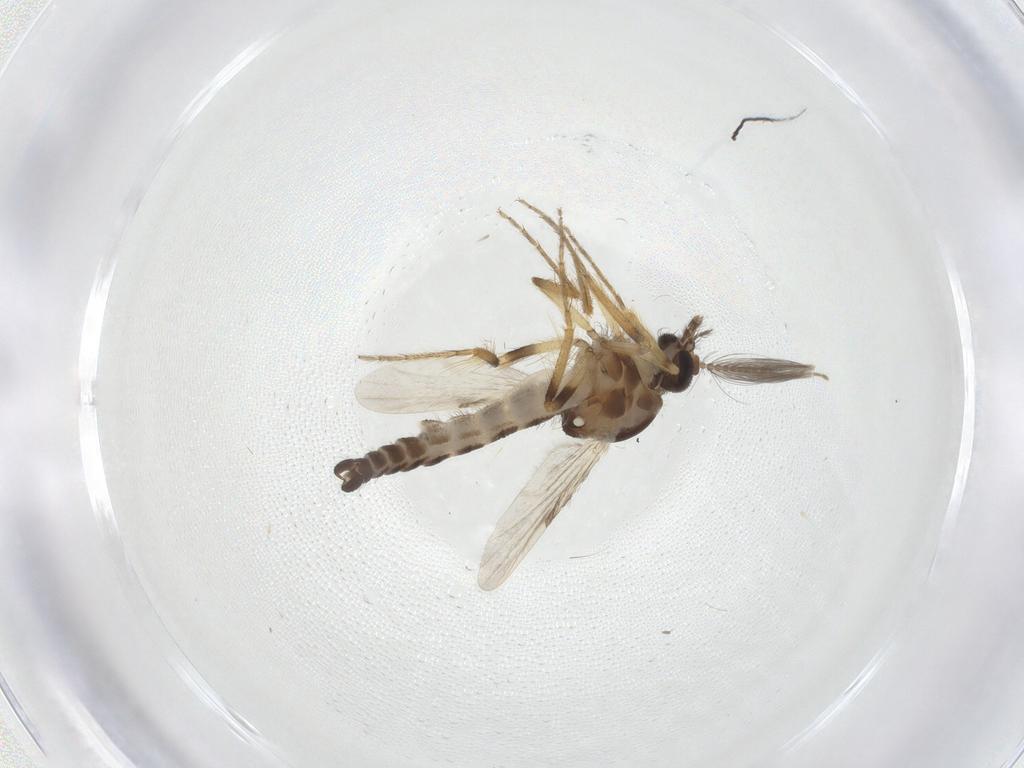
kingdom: Animalia
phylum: Arthropoda
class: Insecta
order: Diptera
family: Ceratopogonidae
